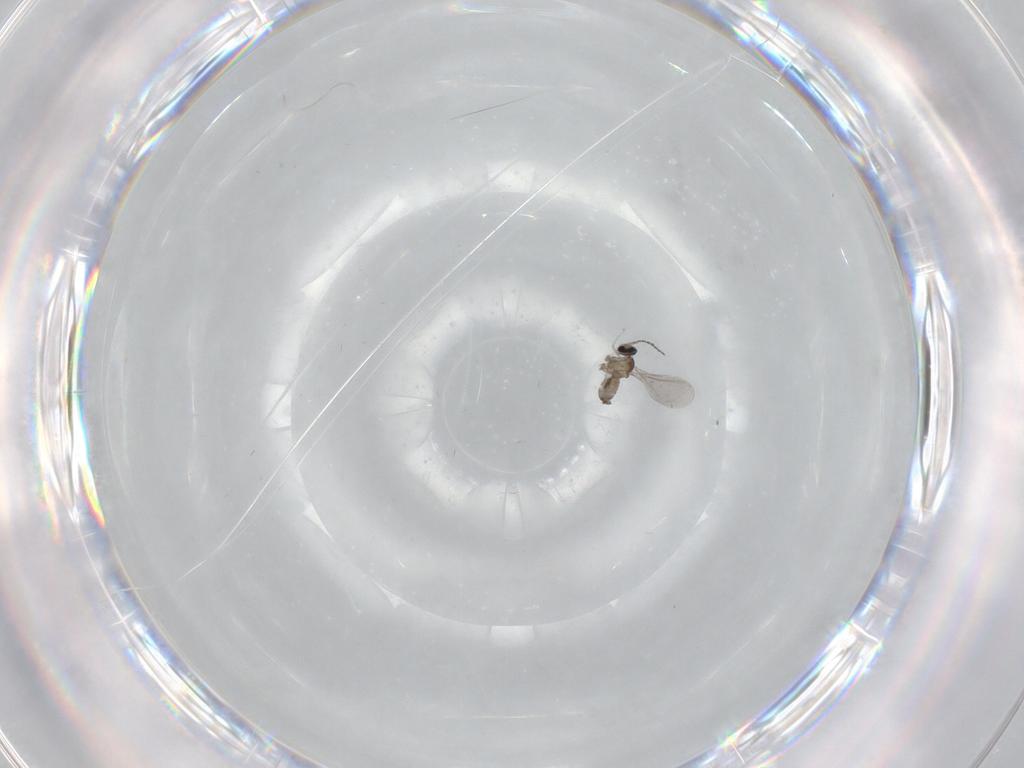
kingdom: Animalia
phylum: Arthropoda
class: Insecta
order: Diptera
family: Cecidomyiidae
